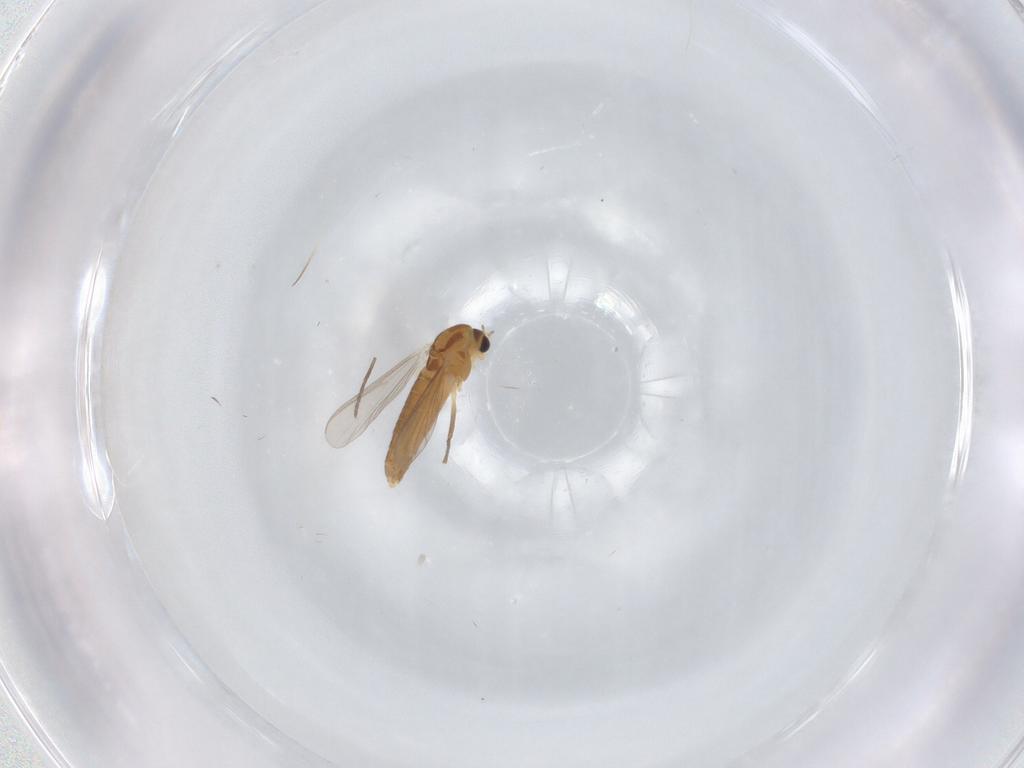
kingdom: Animalia
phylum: Arthropoda
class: Insecta
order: Diptera
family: Sciaridae
